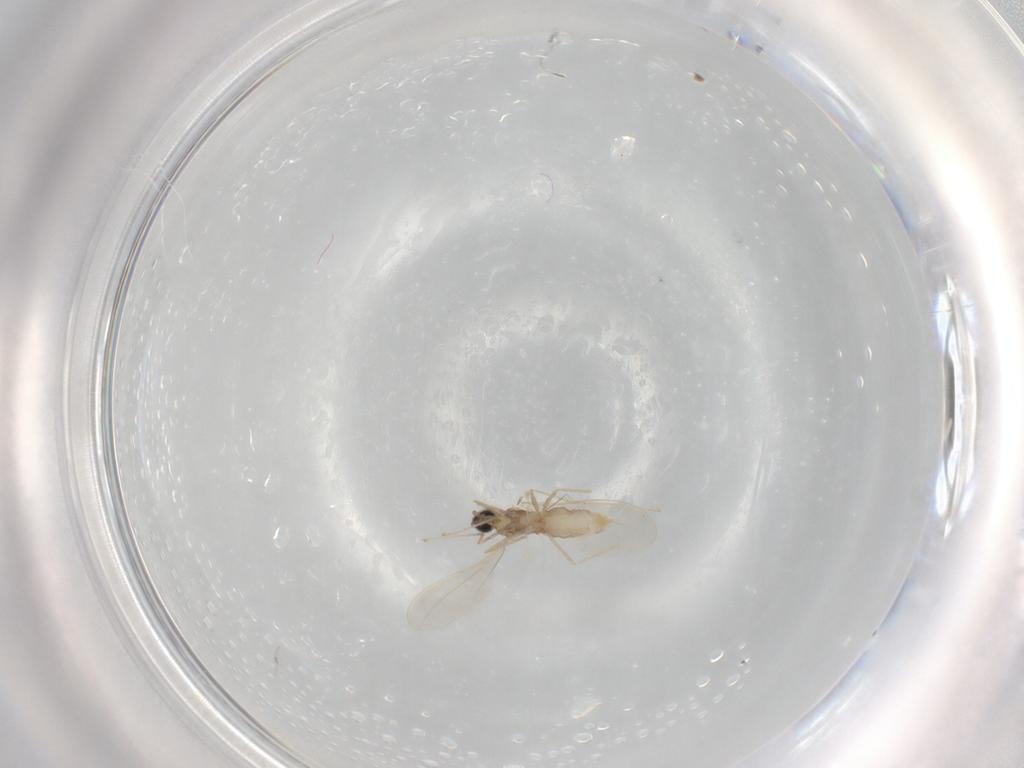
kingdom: Animalia
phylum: Arthropoda
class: Insecta
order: Diptera
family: Cecidomyiidae
